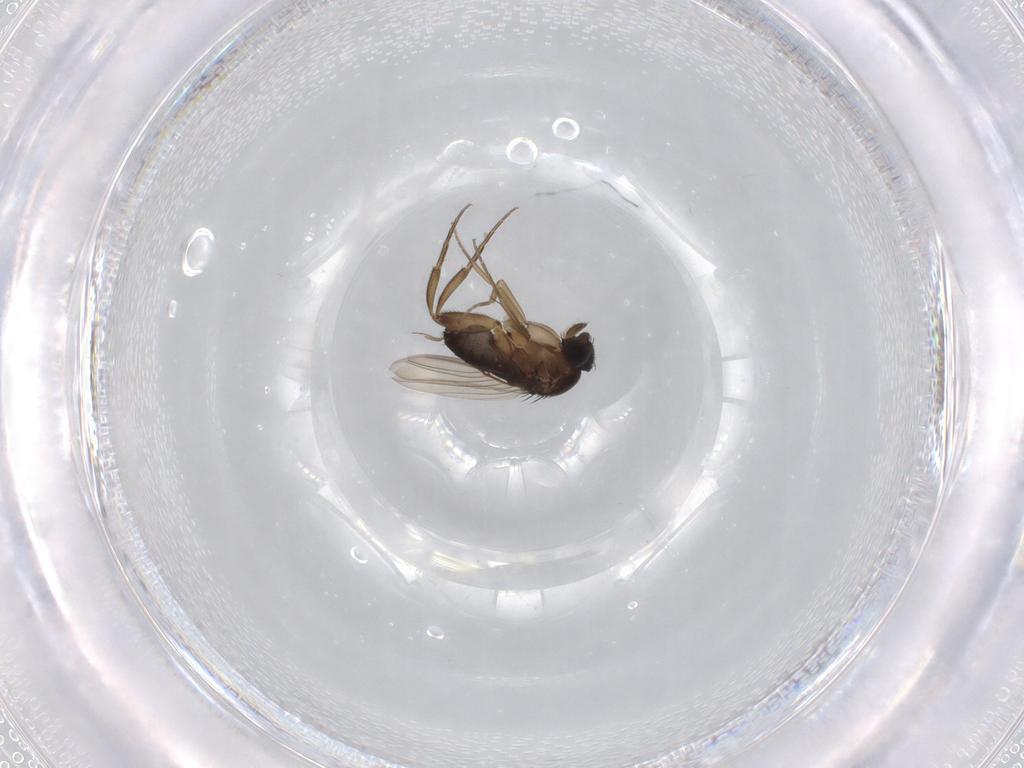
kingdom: Animalia
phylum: Arthropoda
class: Insecta
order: Diptera
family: Phoridae
